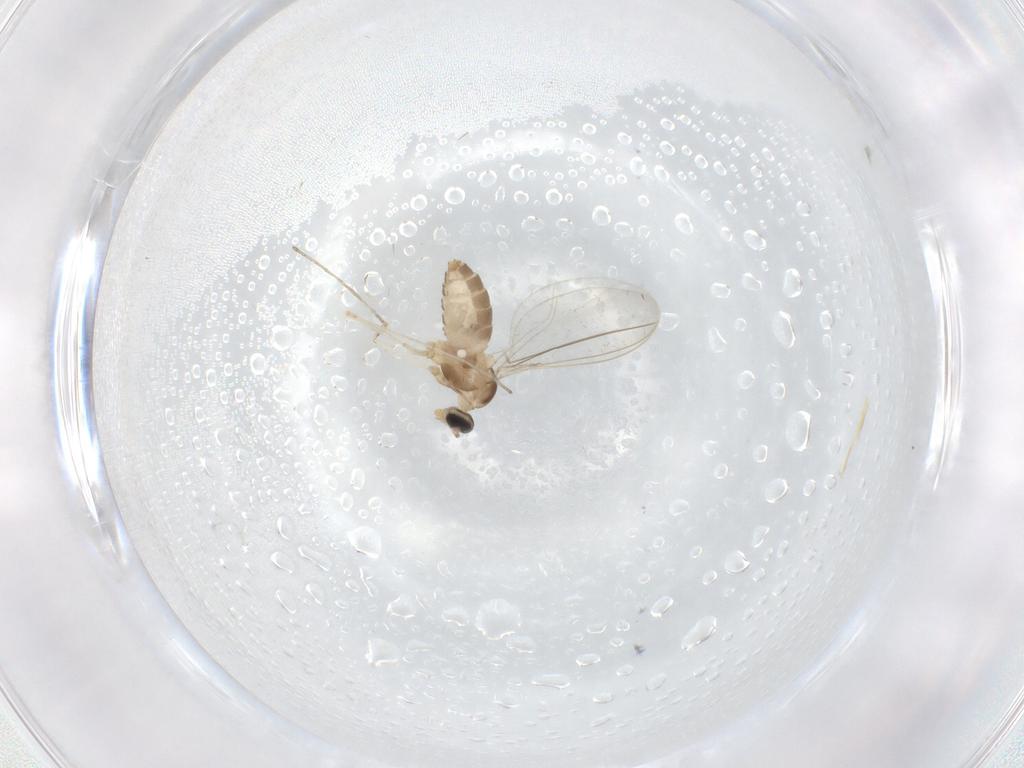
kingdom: Animalia
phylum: Arthropoda
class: Insecta
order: Diptera
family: Cecidomyiidae
